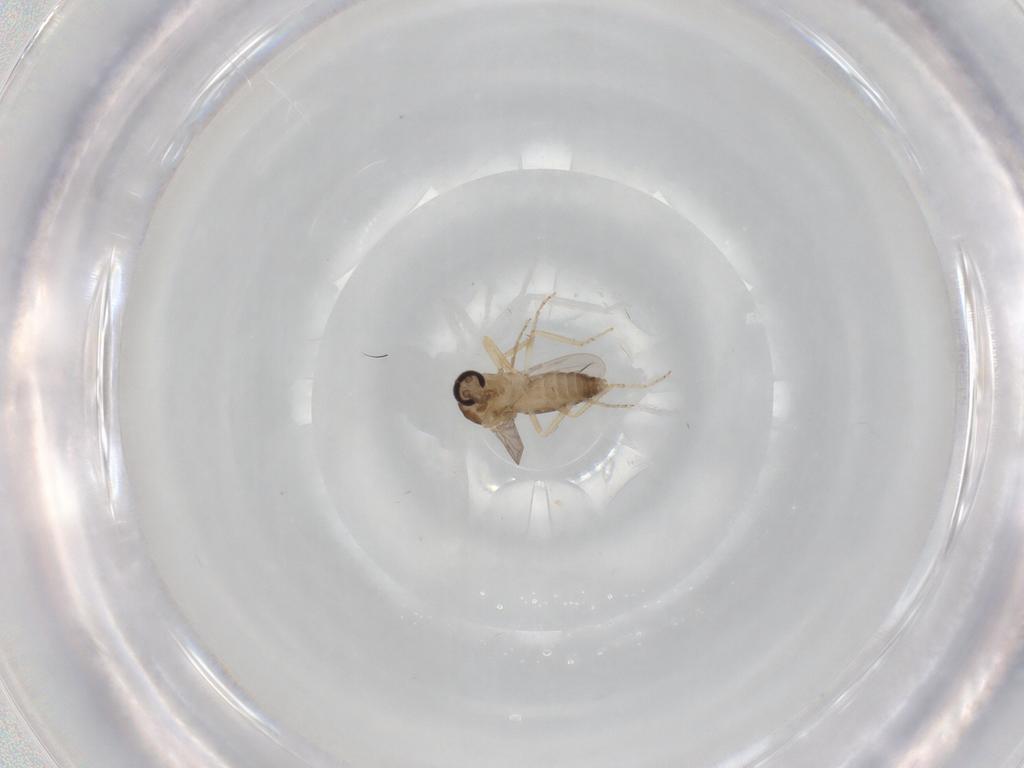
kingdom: Animalia
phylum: Arthropoda
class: Insecta
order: Diptera
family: Ceratopogonidae
